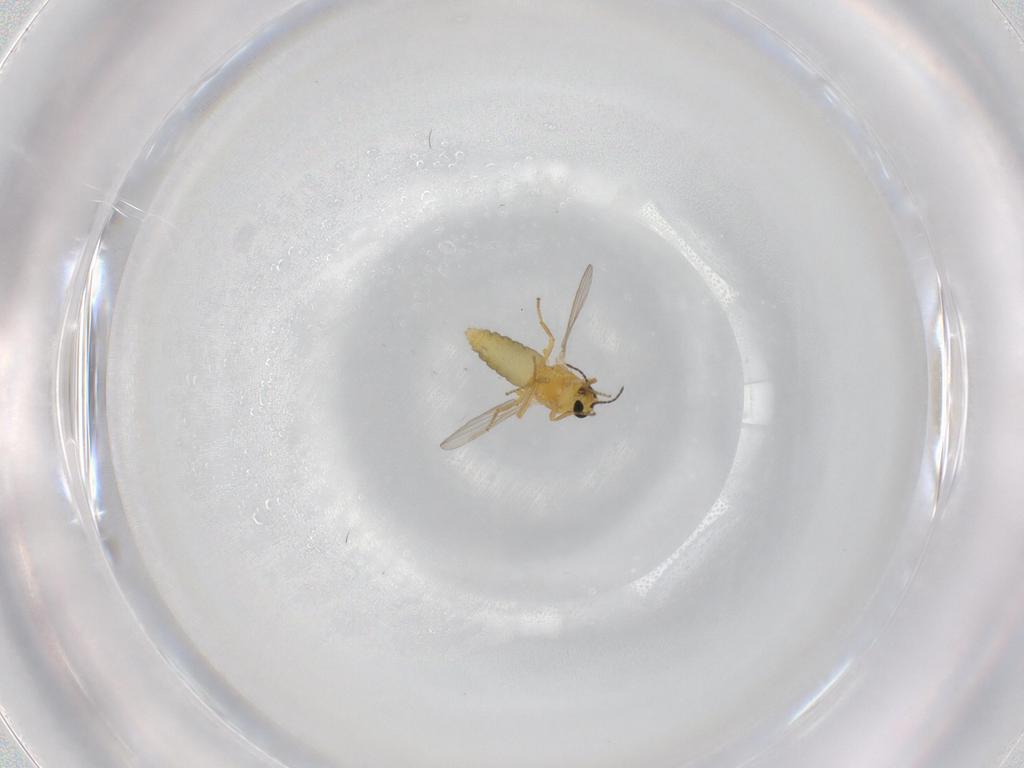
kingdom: Animalia
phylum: Arthropoda
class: Insecta
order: Diptera
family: Ceratopogonidae
